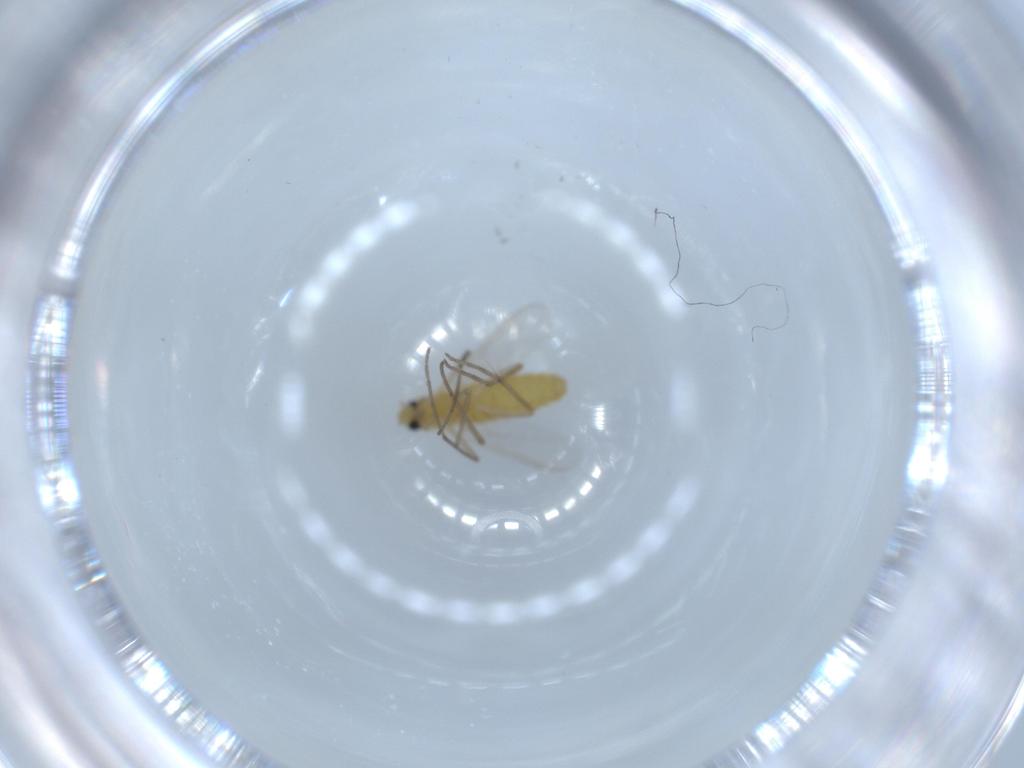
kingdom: Animalia
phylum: Arthropoda
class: Insecta
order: Diptera
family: Chironomidae
